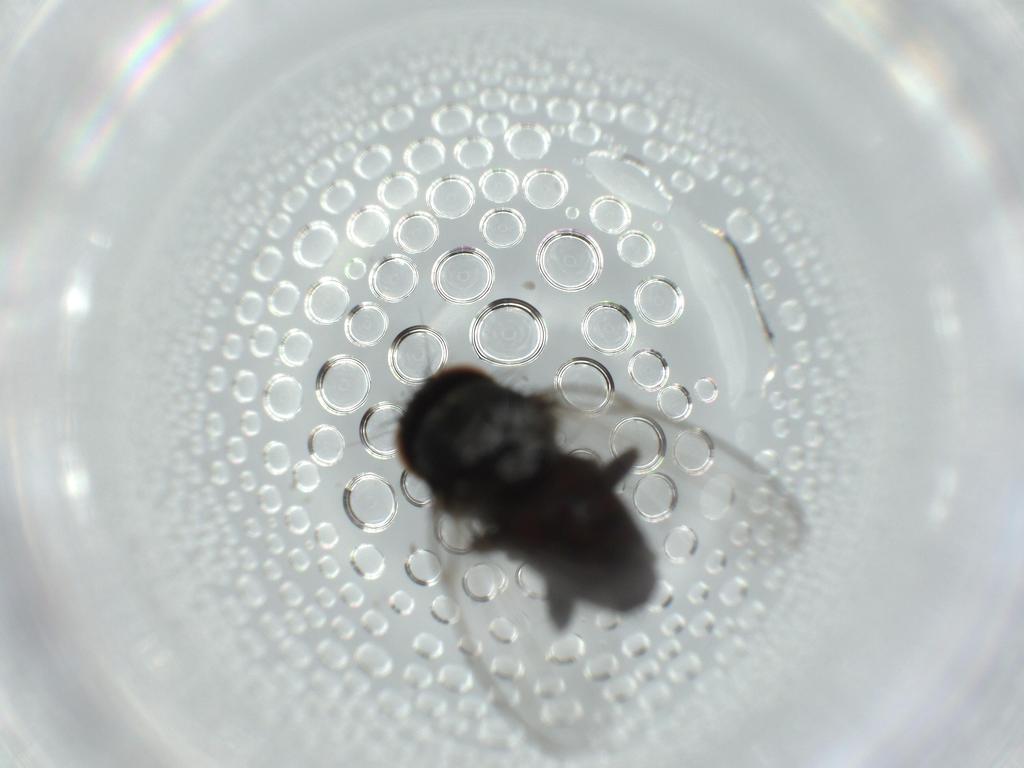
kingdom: Animalia
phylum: Arthropoda
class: Insecta
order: Diptera
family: Milichiidae
